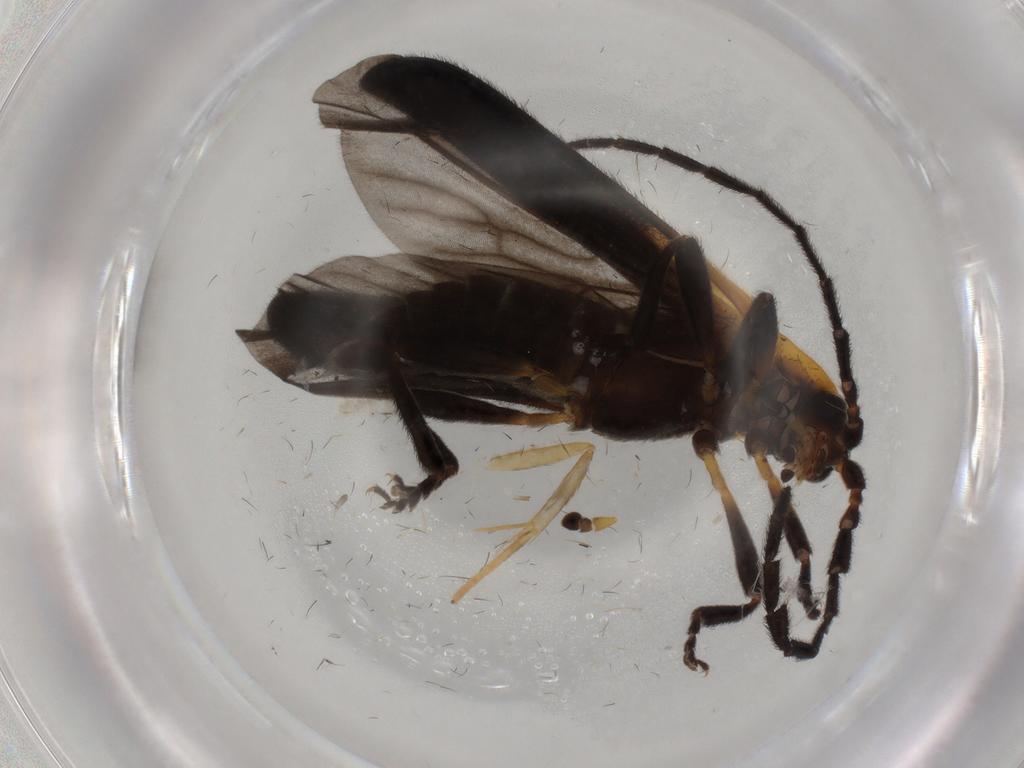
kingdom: Animalia
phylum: Arthropoda
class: Insecta
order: Coleoptera
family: Lycidae
